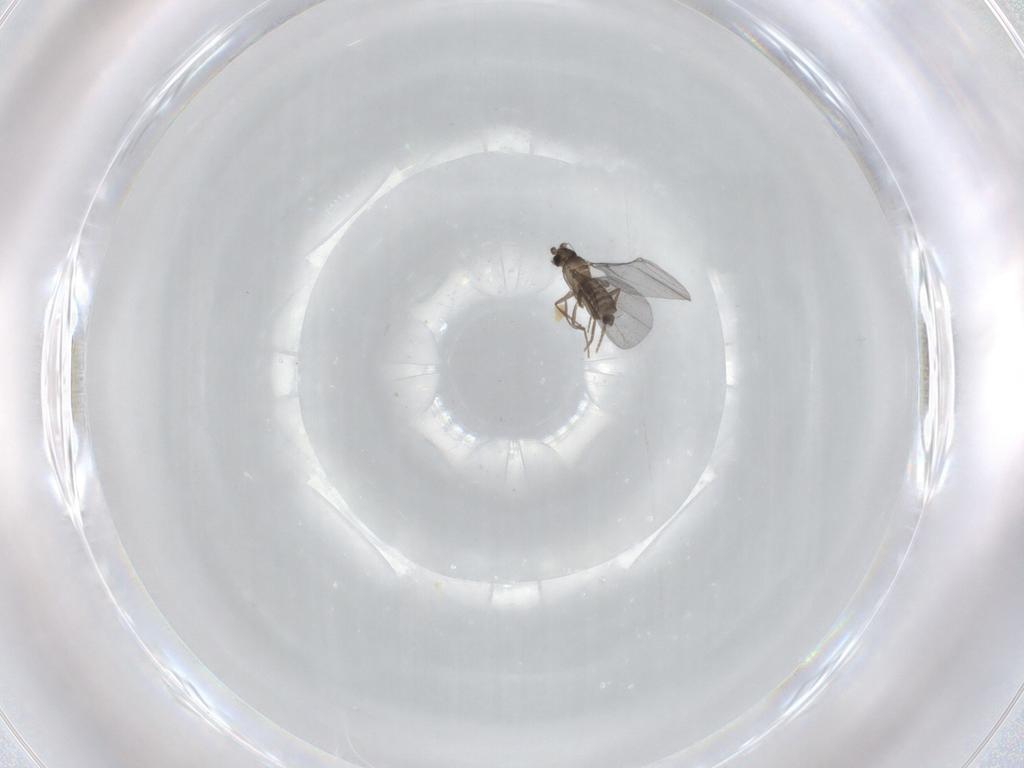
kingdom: Animalia
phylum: Arthropoda
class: Insecta
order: Diptera
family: Phoridae
